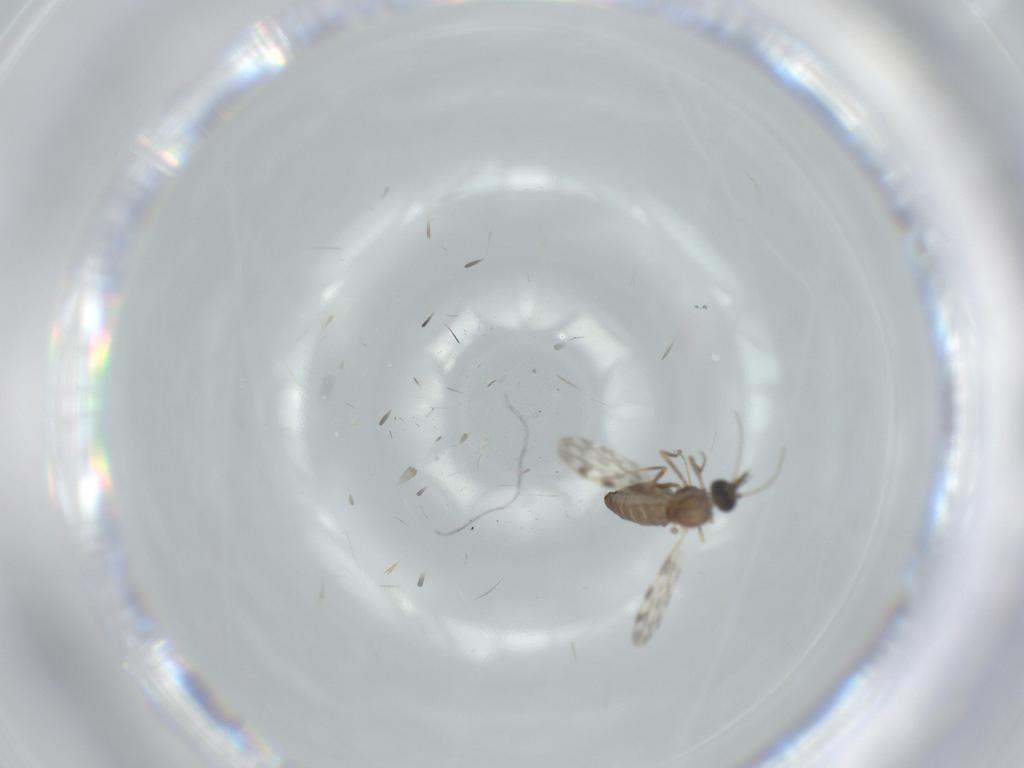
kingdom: Animalia
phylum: Arthropoda
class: Insecta
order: Diptera
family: Ceratopogonidae
